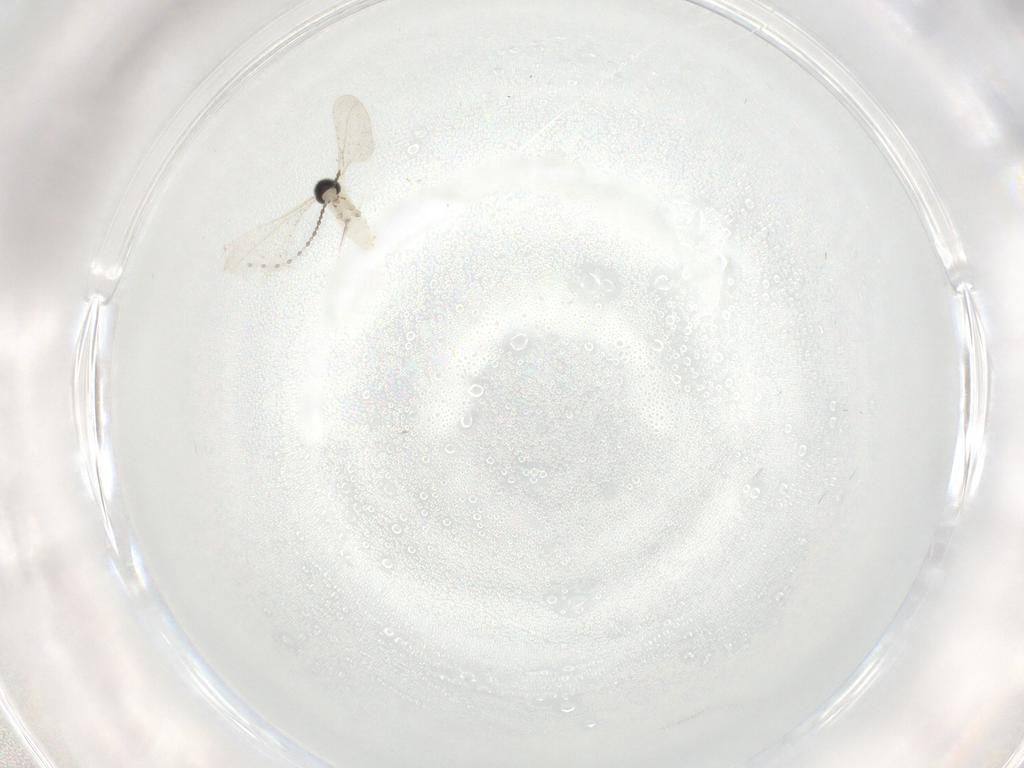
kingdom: Animalia
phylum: Arthropoda
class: Insecta
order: Diptera
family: Cecidomyiidae
